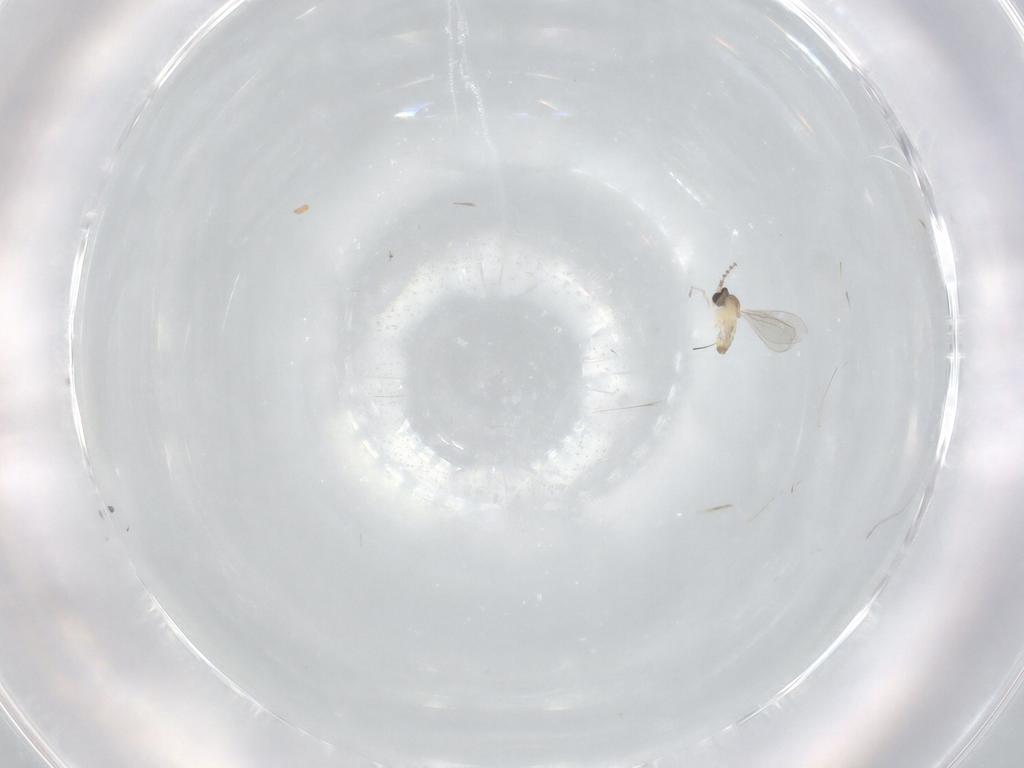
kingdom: Animalia
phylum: Arthropoda
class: Insecta
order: Diptera
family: Cecidomyiidae
